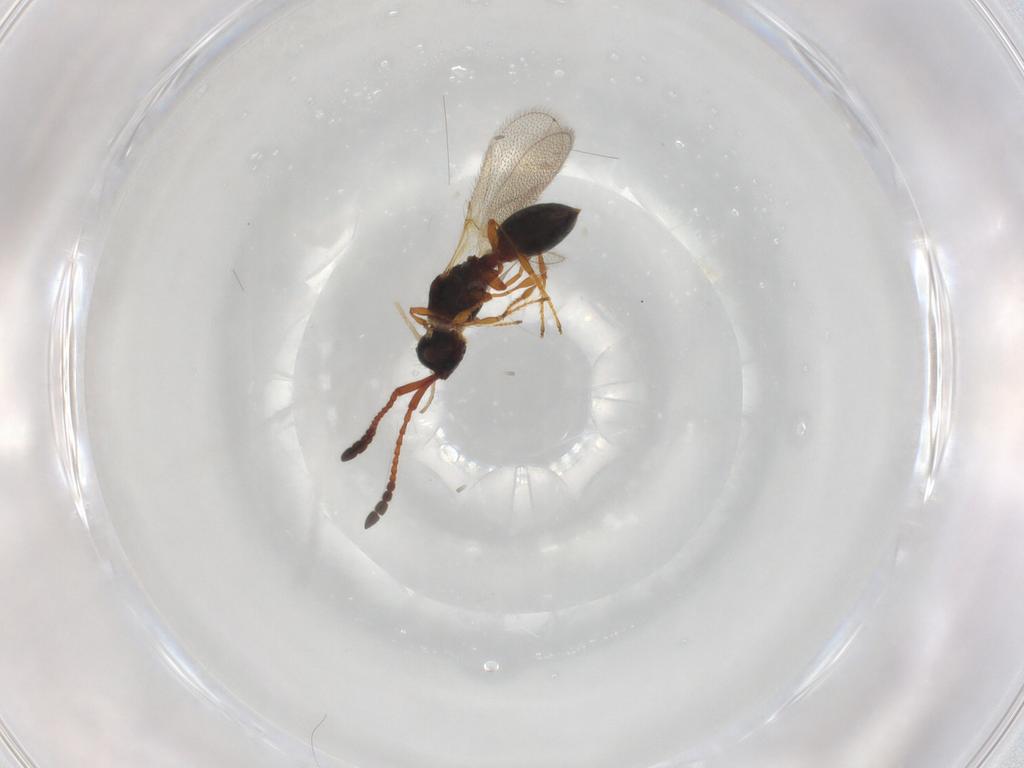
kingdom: Animalia
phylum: Arthropoda
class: Insecta
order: Hymenoptera
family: Diapriidae
